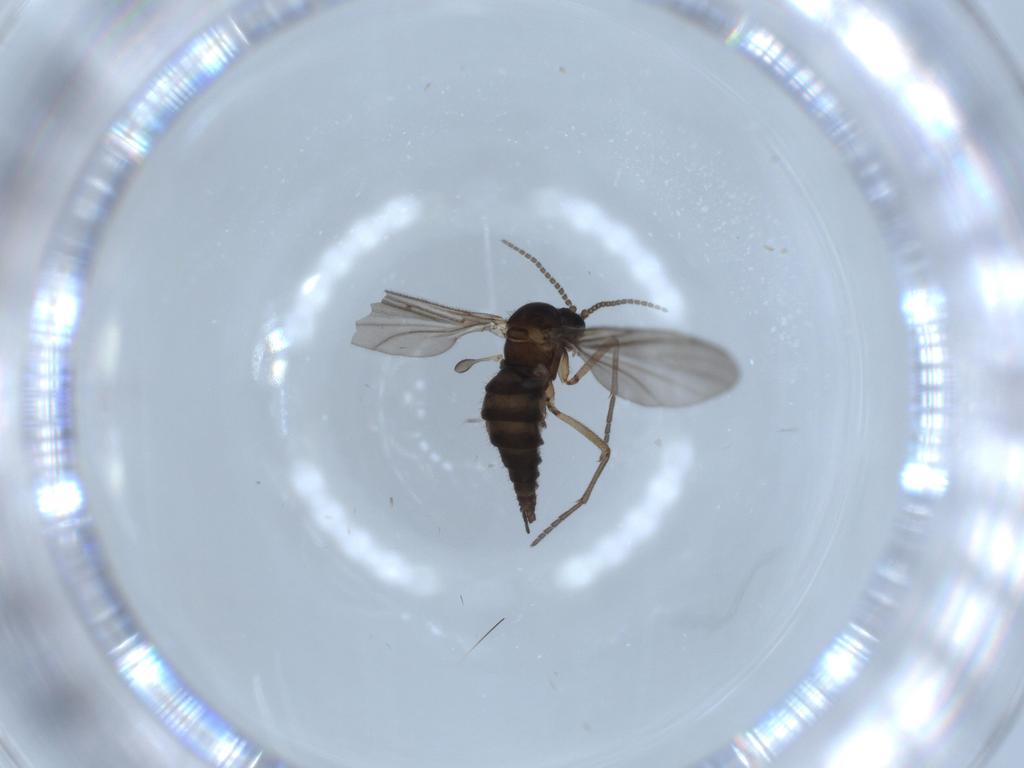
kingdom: Animalia
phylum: Arthropoda
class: Insecta
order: Diptera
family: Sciaridae
